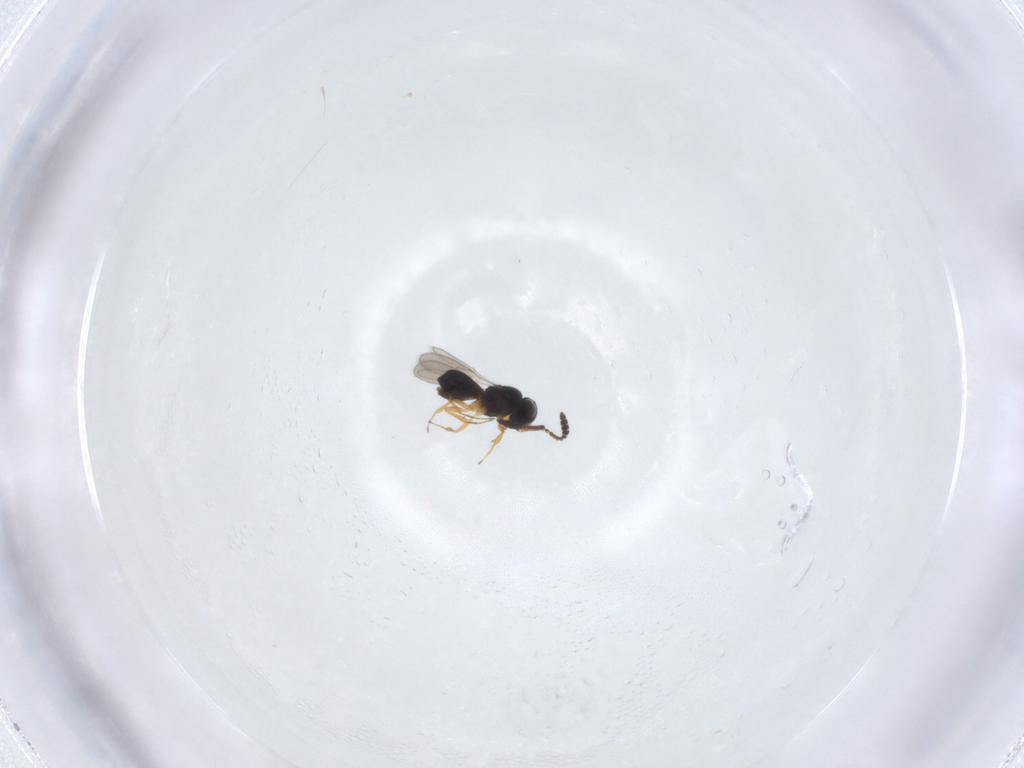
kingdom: Animalia
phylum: Arthropoda
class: Insecta
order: Hymenoptera
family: Scelionidae
